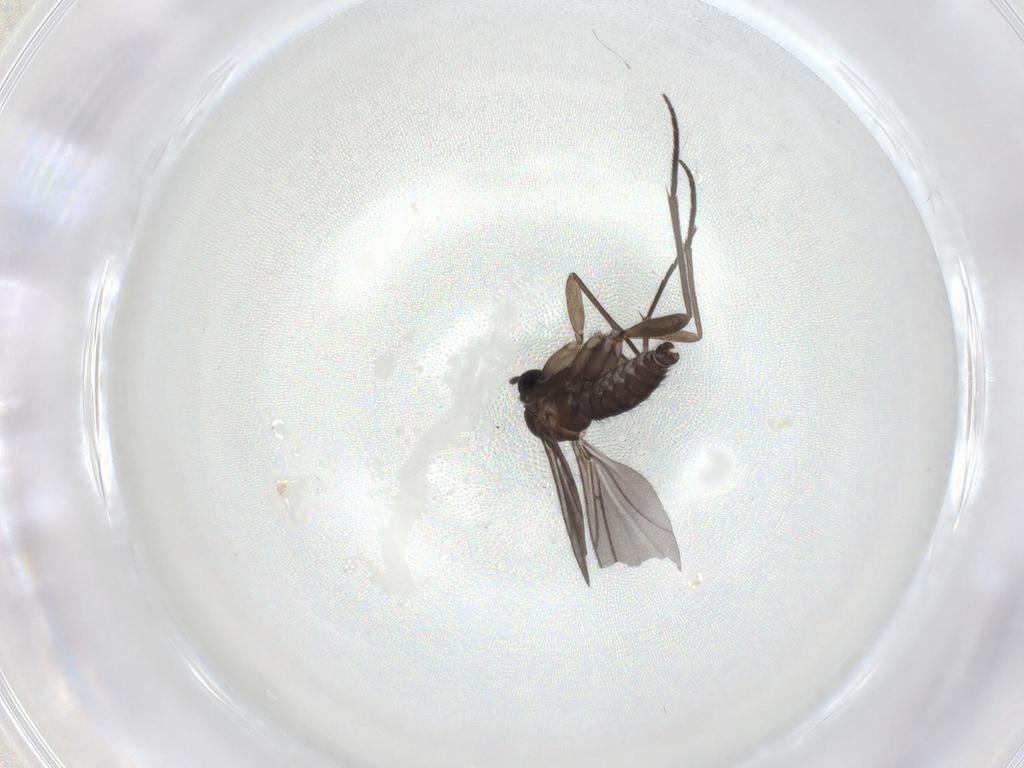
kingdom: Animalia
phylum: Arthropoda
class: Insecta
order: Diptera
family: Sciaridae
